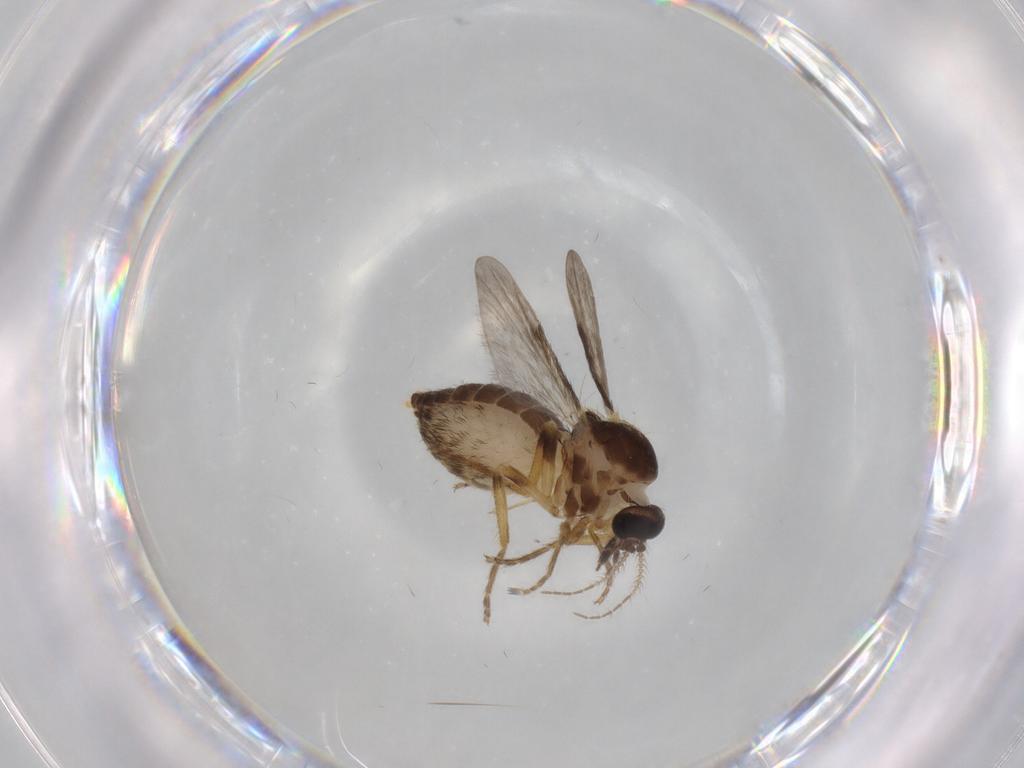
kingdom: Animalia
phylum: Arthropoda
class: Insecta
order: Diptera
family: Ceratopogonidae
